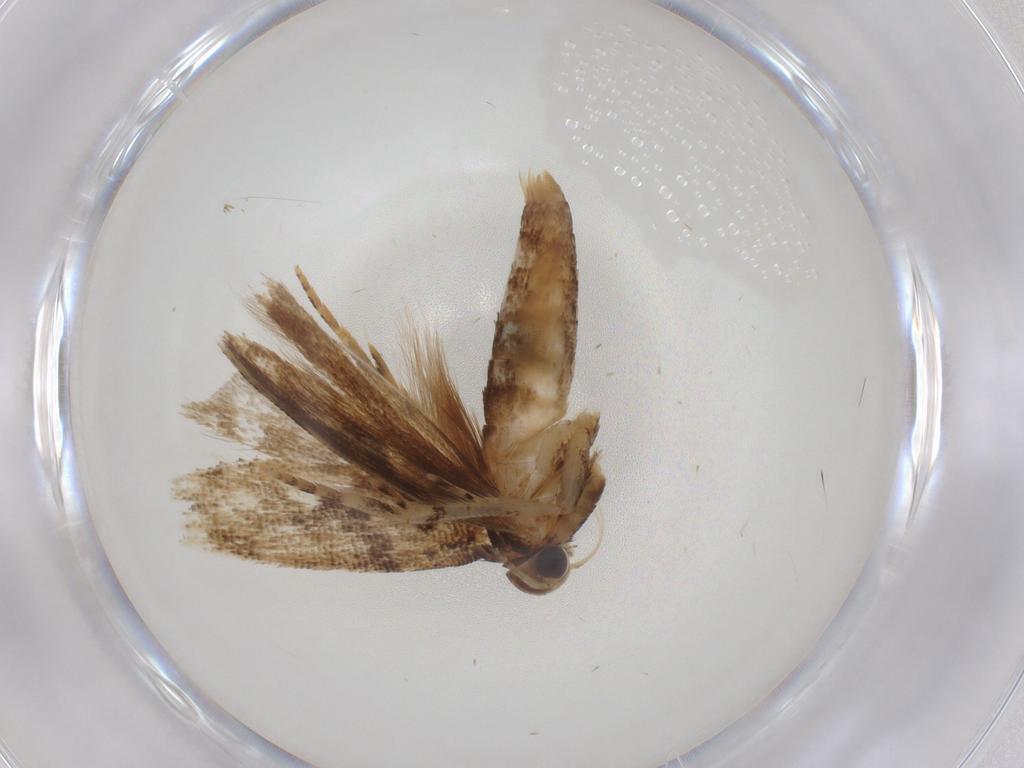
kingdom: Animalia
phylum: Arthropoda
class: Insecta
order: Lepidoptera
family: Gelechiidae
